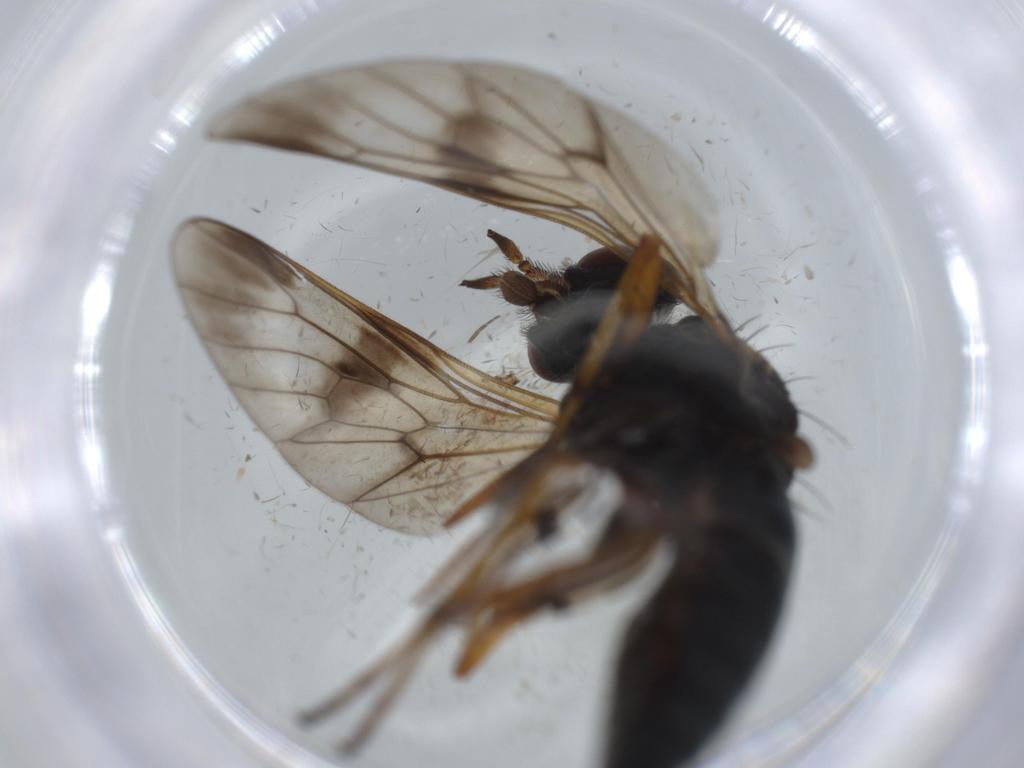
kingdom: Animalia
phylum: Arthropoda
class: Insecta
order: Diptera
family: Ceratopogonidae
